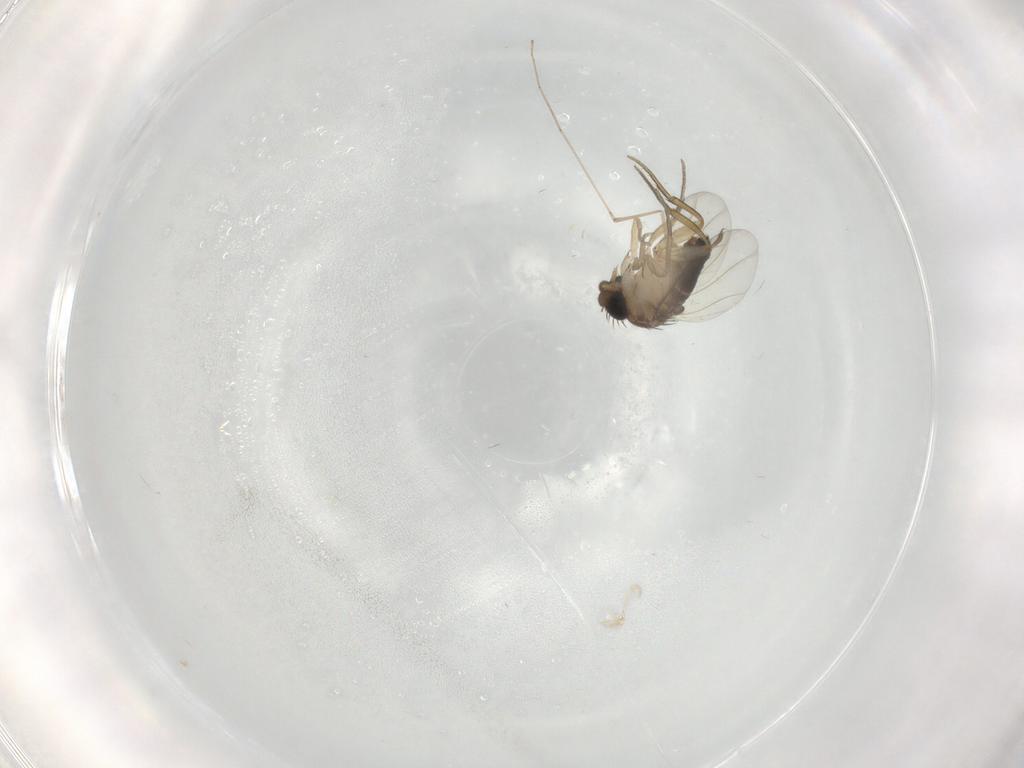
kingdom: Animalia
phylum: Arthropoda
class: Insecta
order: Diptera
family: Cecidomyiidae
